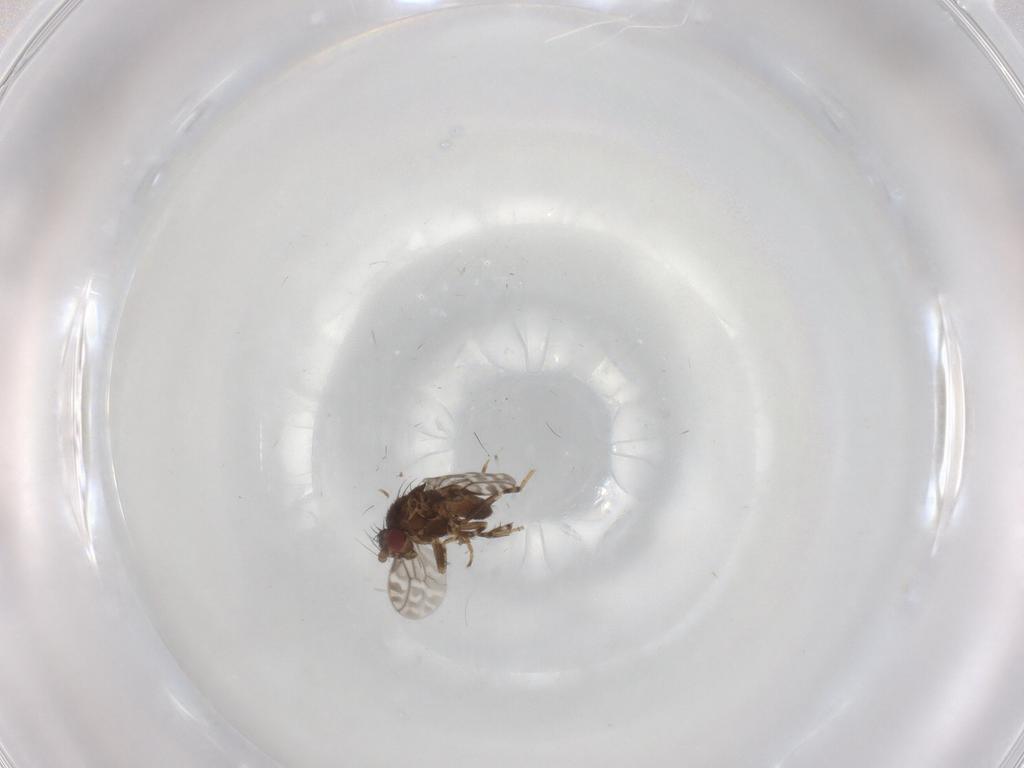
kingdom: Animalia
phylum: Arthropoda
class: Insecta
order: Diptera
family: Sphaeroceridae
